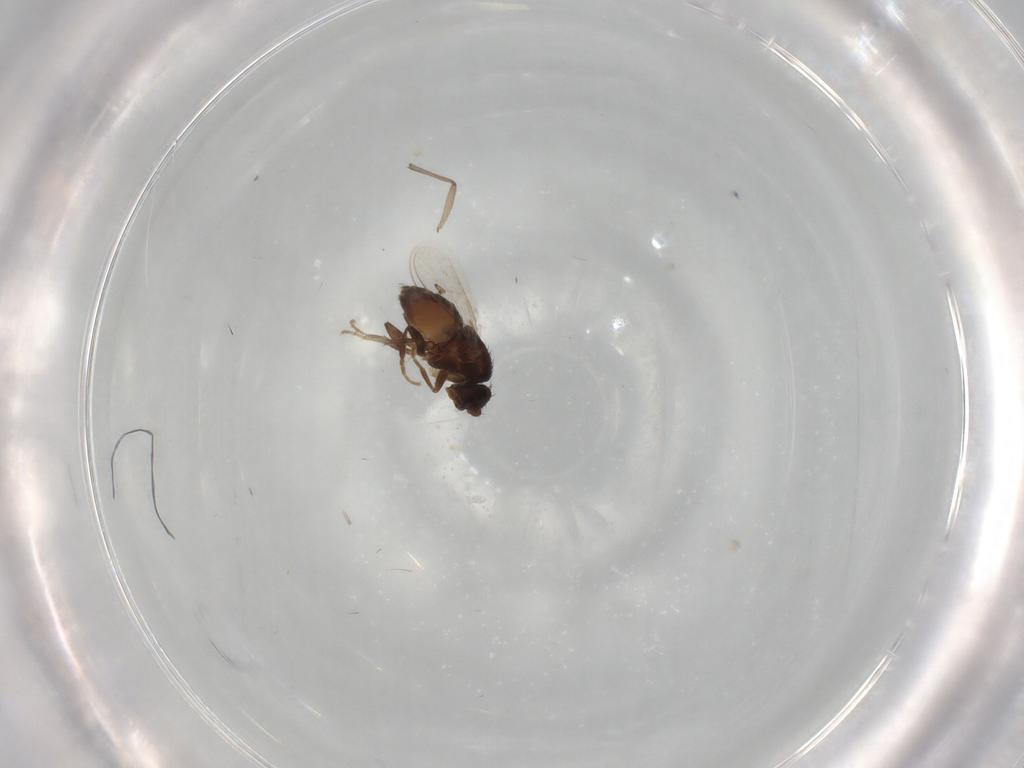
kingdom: Animalia
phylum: Arthropoda
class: Insecta
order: Diptera
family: Sphaeroceridae
